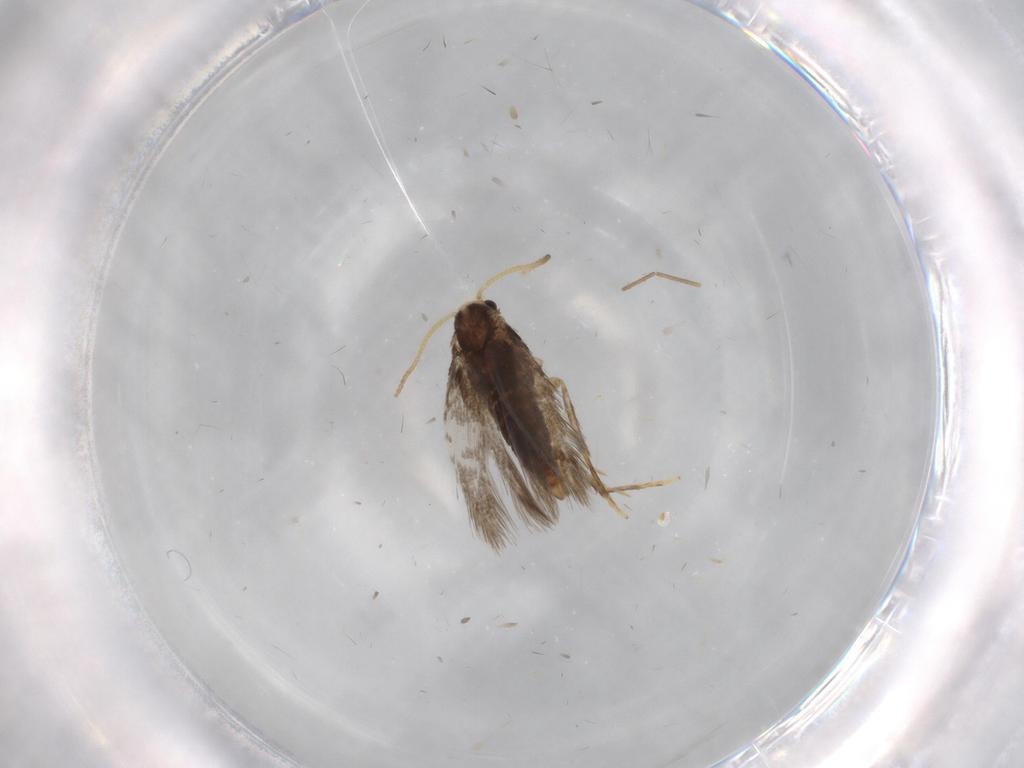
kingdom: Animalia
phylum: Arthropoda
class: Insecta
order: Lepidoptera
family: Nepticulidae
